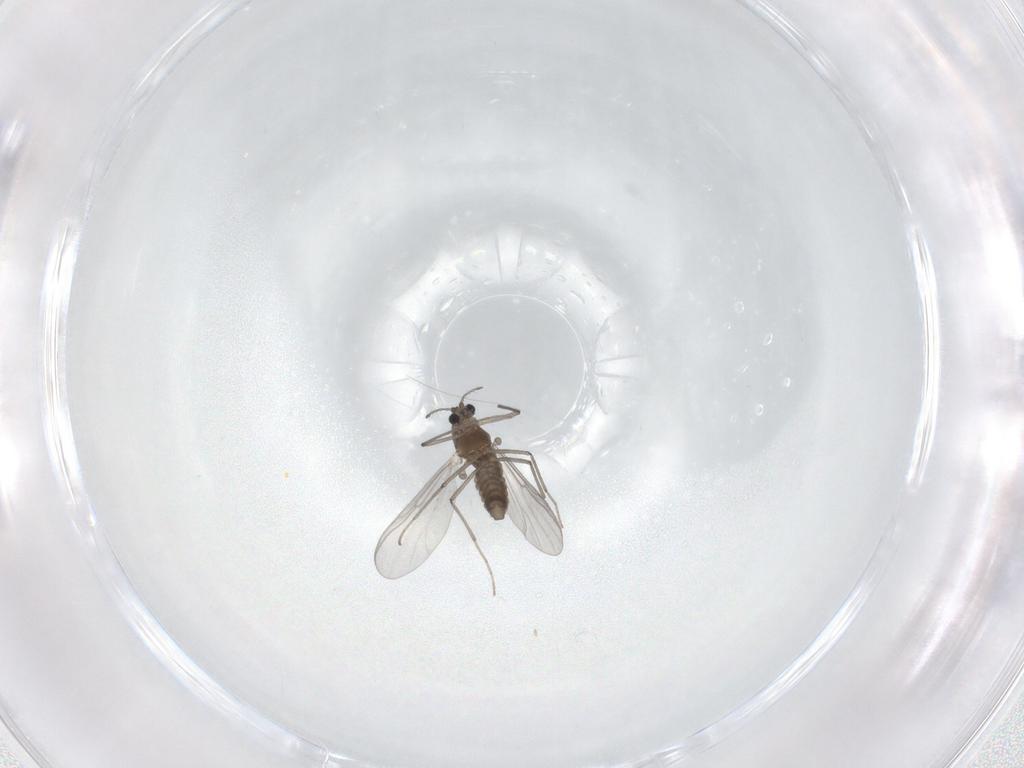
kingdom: Animalia
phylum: Arthropoda
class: Insecta
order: Diptera
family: Chironomidae
